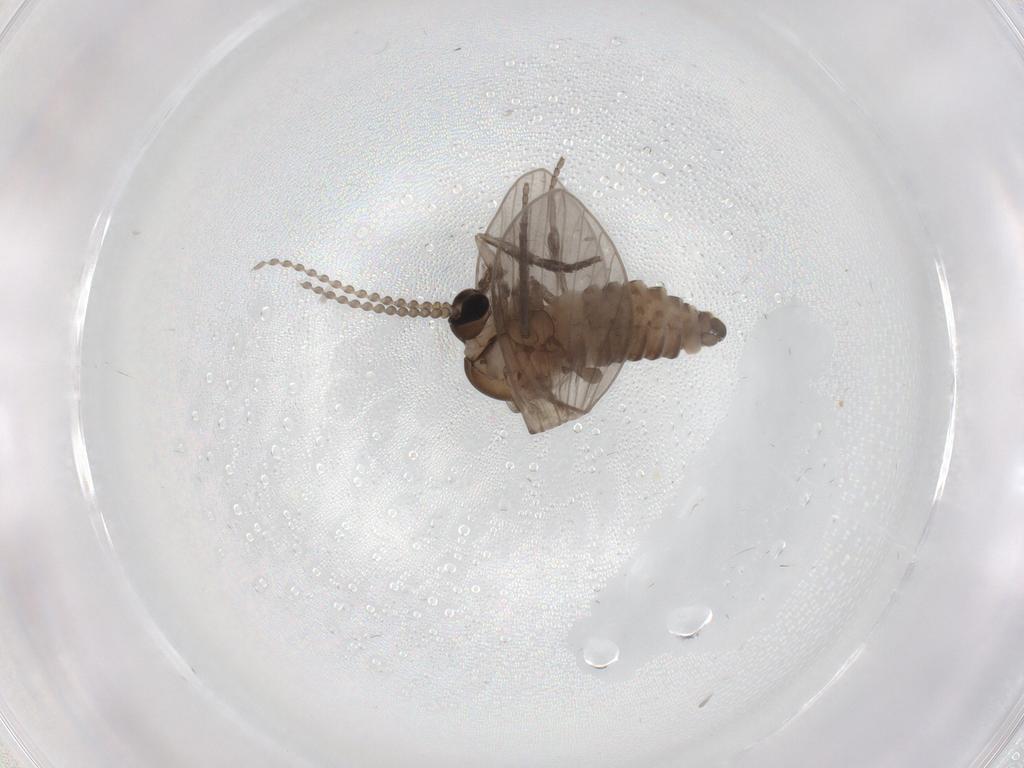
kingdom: Animalia
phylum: Arthropoda
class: Insecta
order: Diptera
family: Psychodidae
